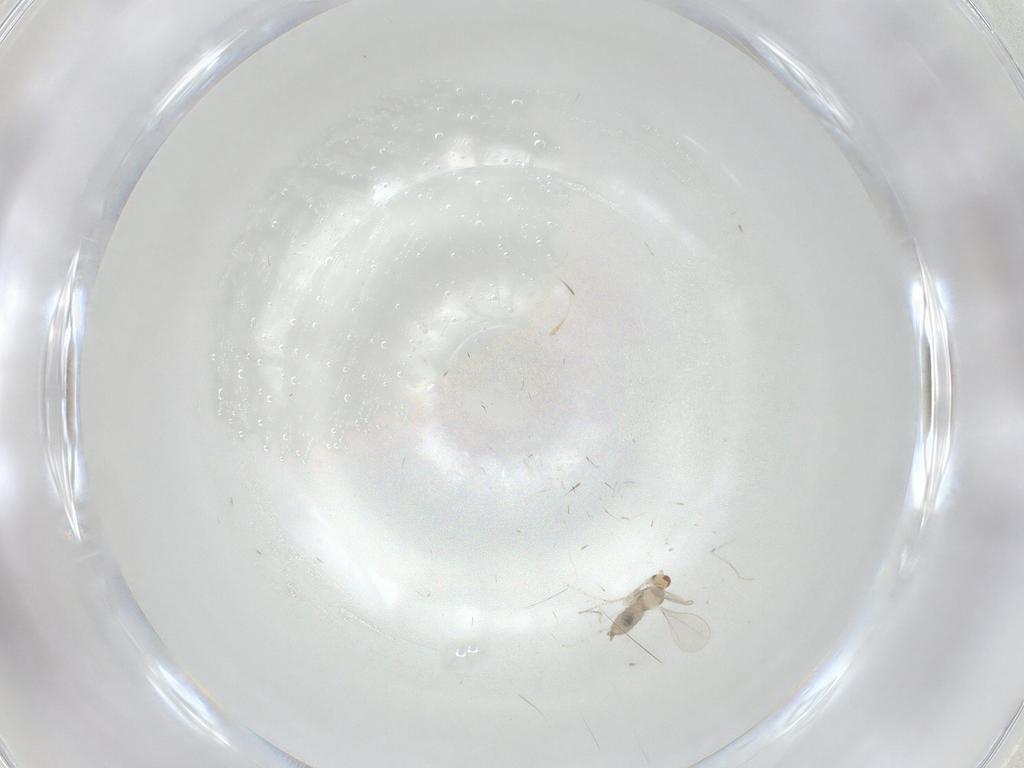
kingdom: Animalia
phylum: Arthropoda
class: Insecta
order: Diptera
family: Cecidomyiidae
